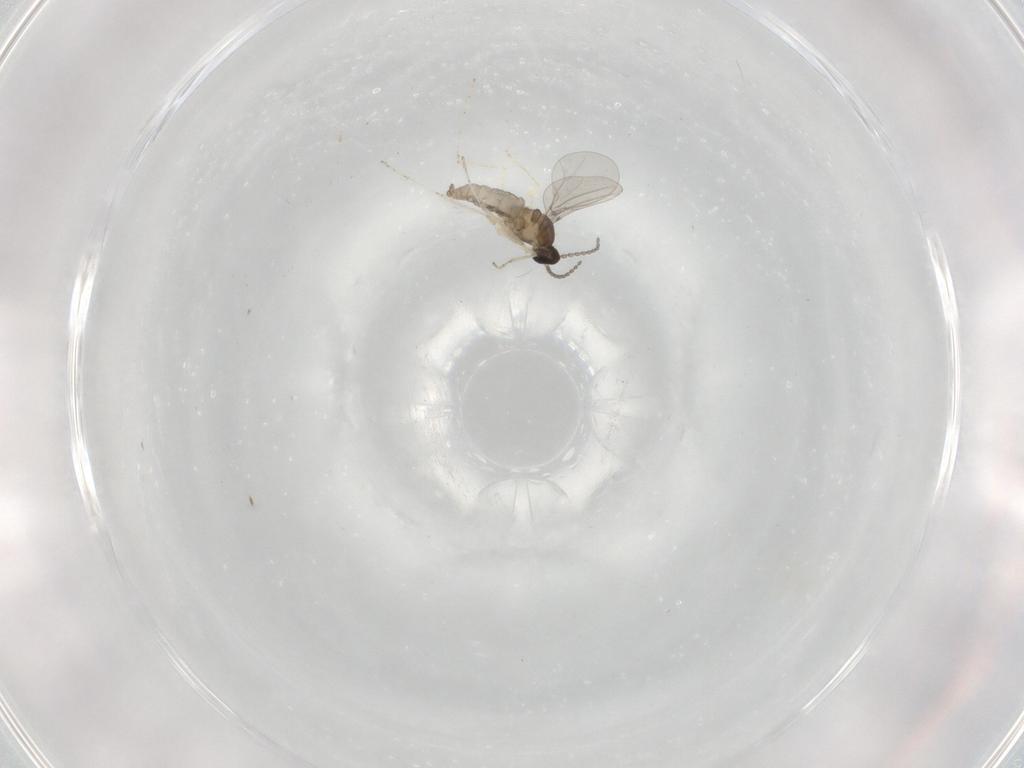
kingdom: Animalia
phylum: Arthropoda
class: Insecta
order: Diptera
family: Cecidomyiidae
